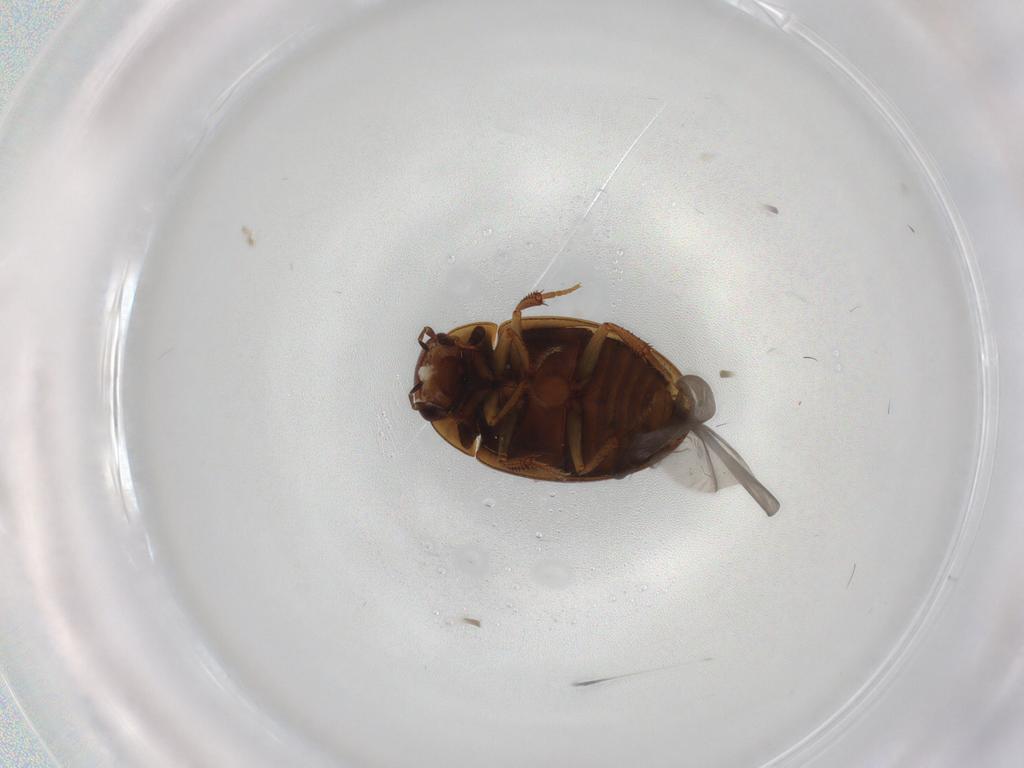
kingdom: Animalia
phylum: Arthropoda
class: Insecta
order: Coleoptera
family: Hydrophilidae
